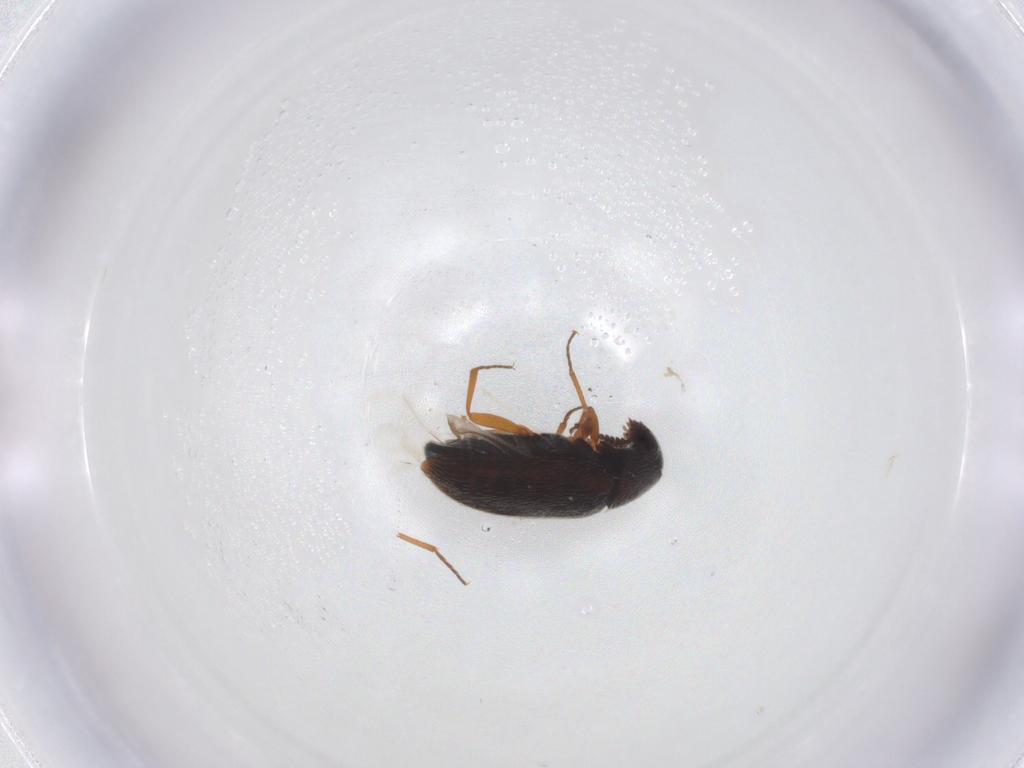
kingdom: Animalia
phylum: Arthropoda
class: Insecta
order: Coleoptera
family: Rhadalidae
